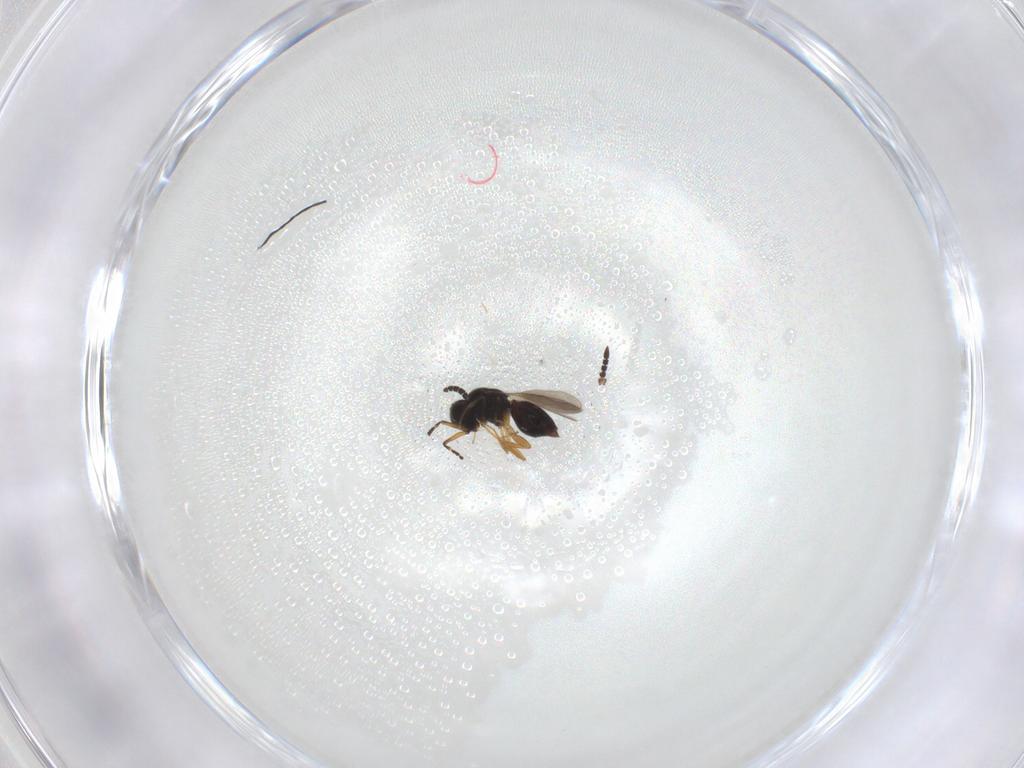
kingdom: Animalia
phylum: Arthropoda
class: Insecta
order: Hymenoptera
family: Ceraphronidae
